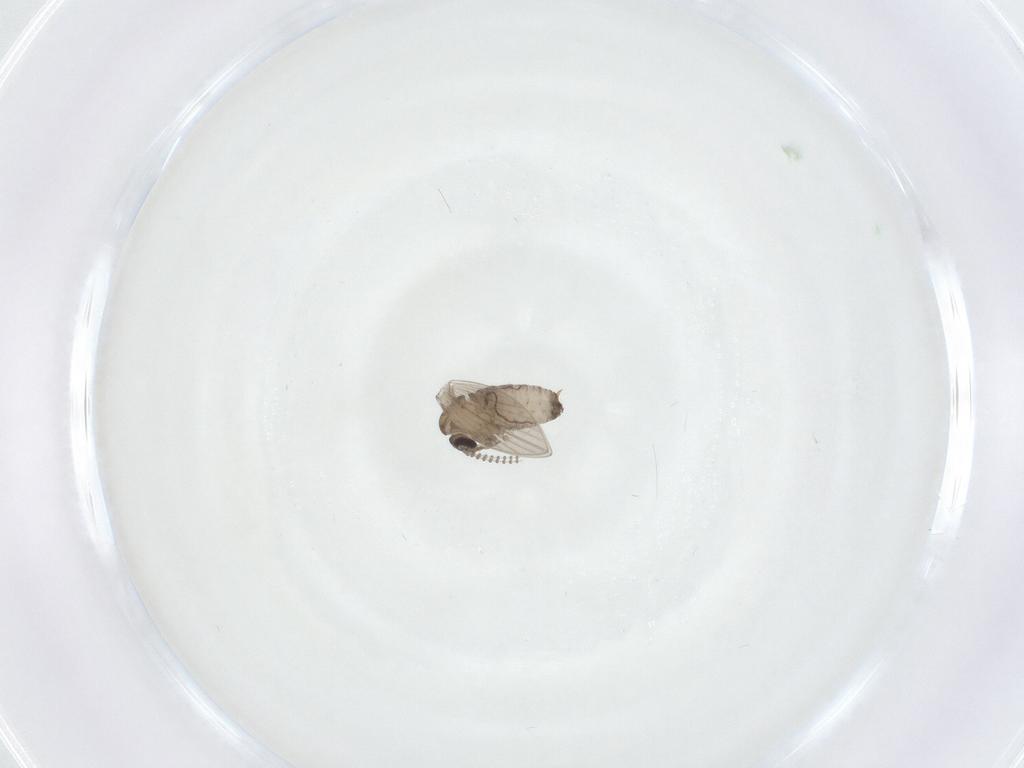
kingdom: Animalia
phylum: Arthropoda
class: Insecta
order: Diptera
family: Psychodidae
